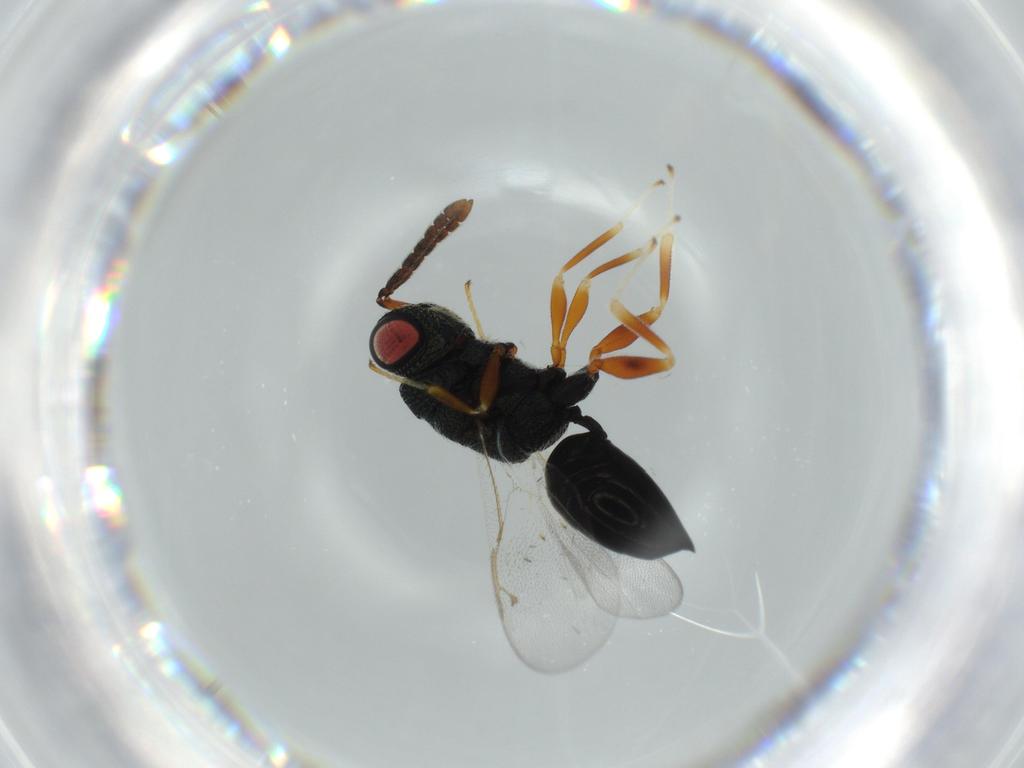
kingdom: Animalia
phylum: Arthropoda
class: Insecta
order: Hymenoptera
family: Eurytomidae
